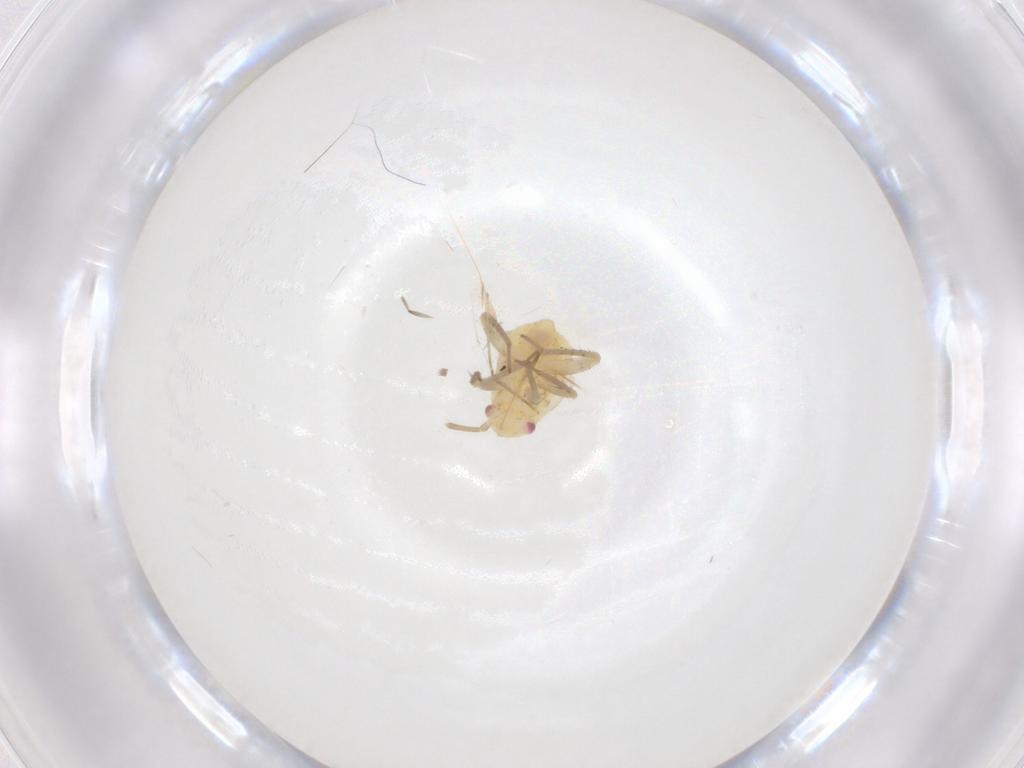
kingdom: Animalia
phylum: Arthropoda
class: Insecta
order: Hemiptera
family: Miridae
